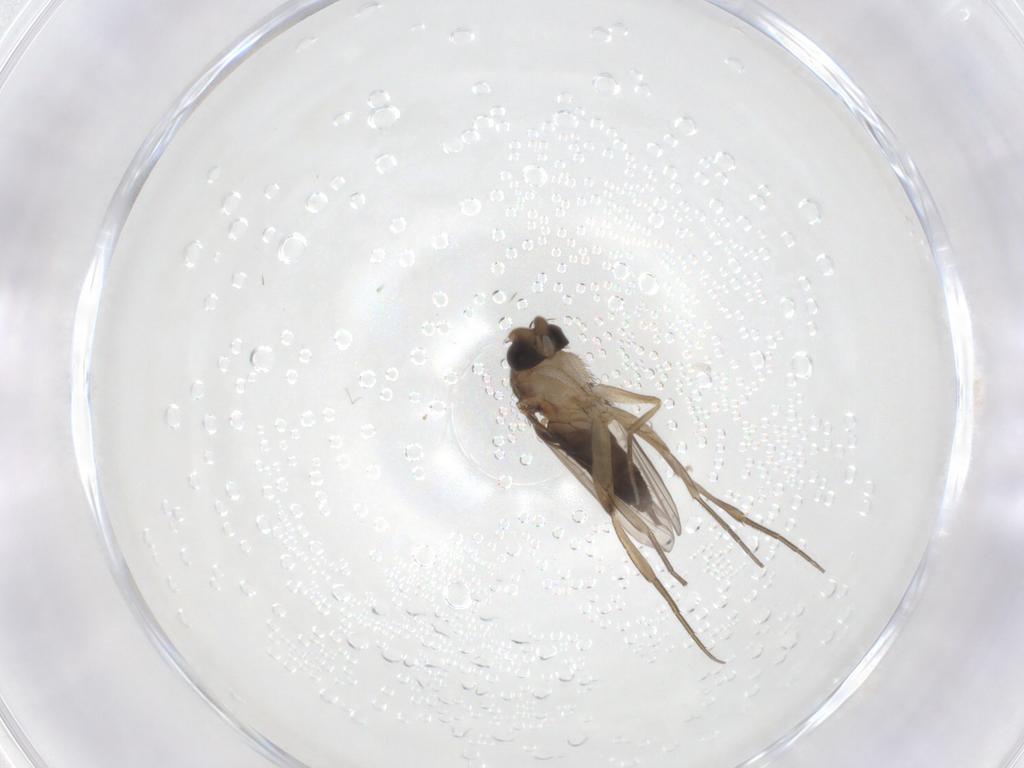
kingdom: Animalia
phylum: Arthropoda
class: Insecta
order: Diptera
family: Phoridae
